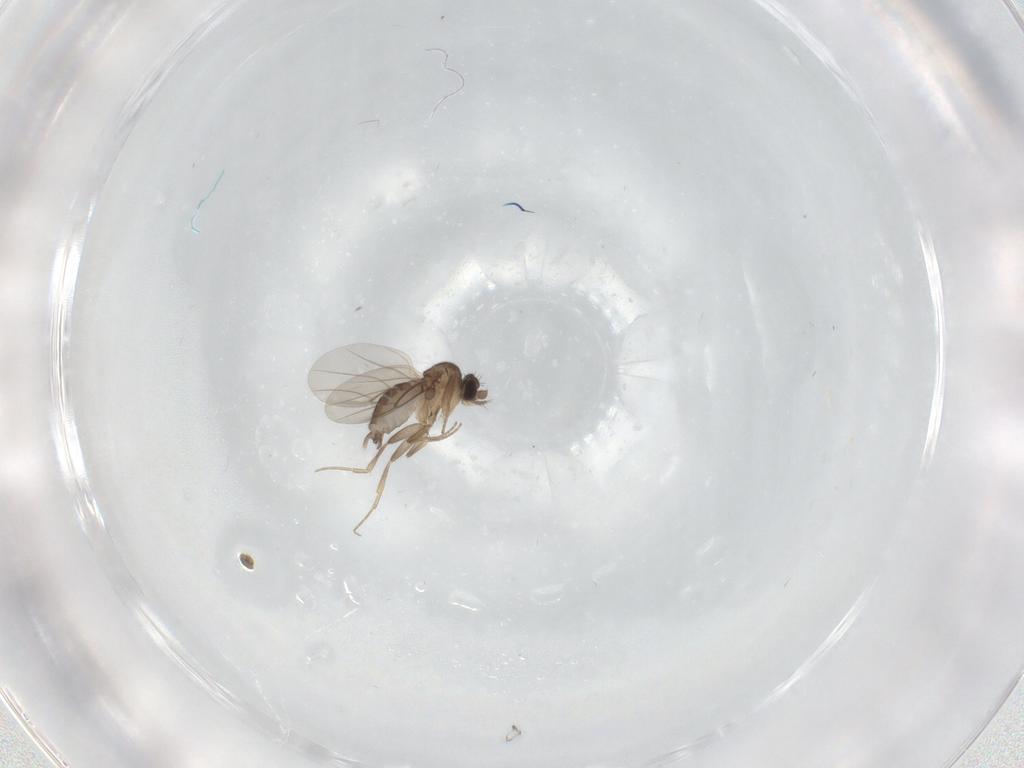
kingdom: Animalia
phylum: Arthropoda
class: Insecta
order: Diptera
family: Phoridae
